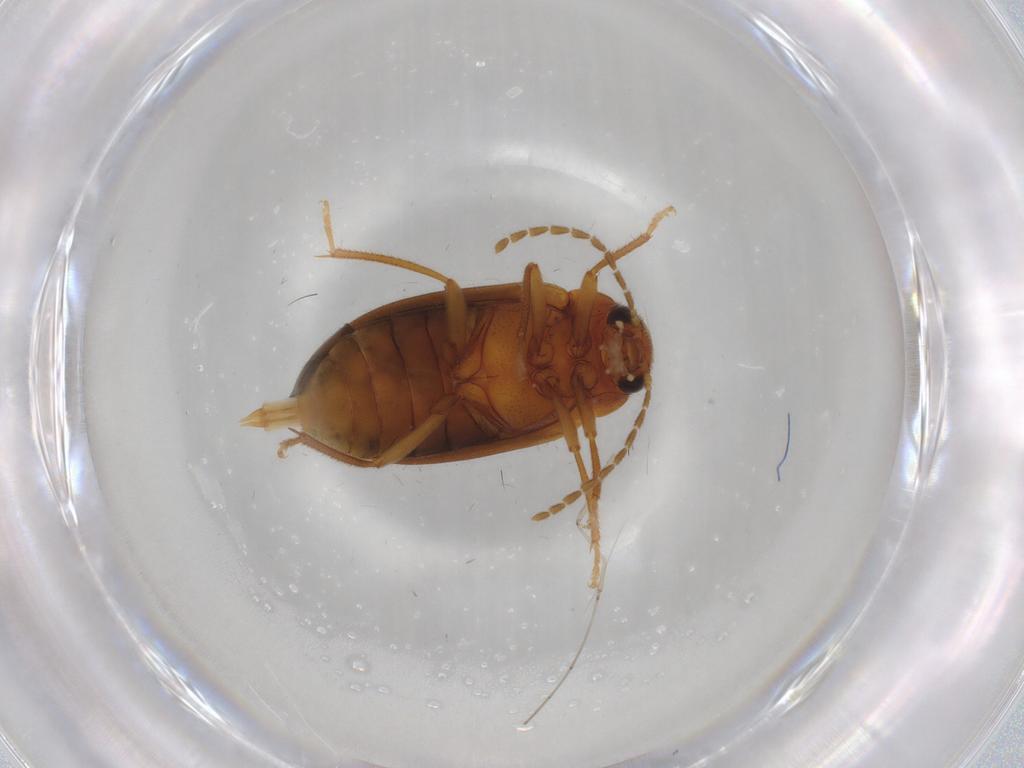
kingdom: Animalia
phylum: Arthropoda
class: Insecta
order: Coleoptera
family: Ptilodactylidae
